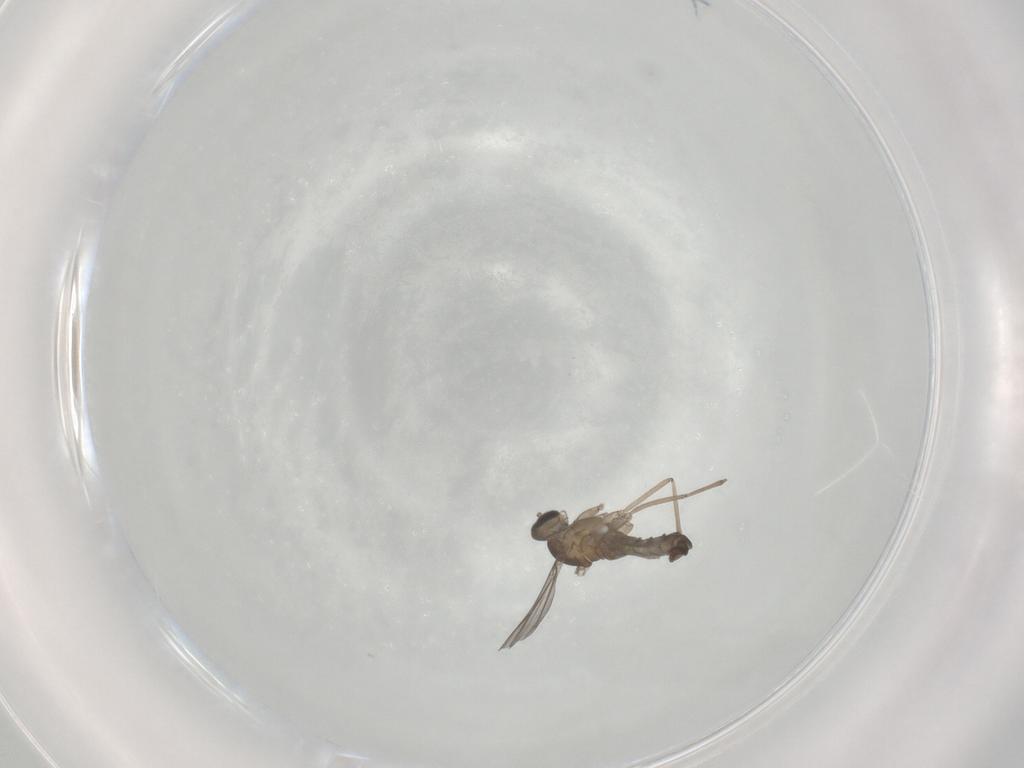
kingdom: Animalia
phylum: Arthropoda
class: Insecta
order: Diptera
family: Cecidomyiidae
